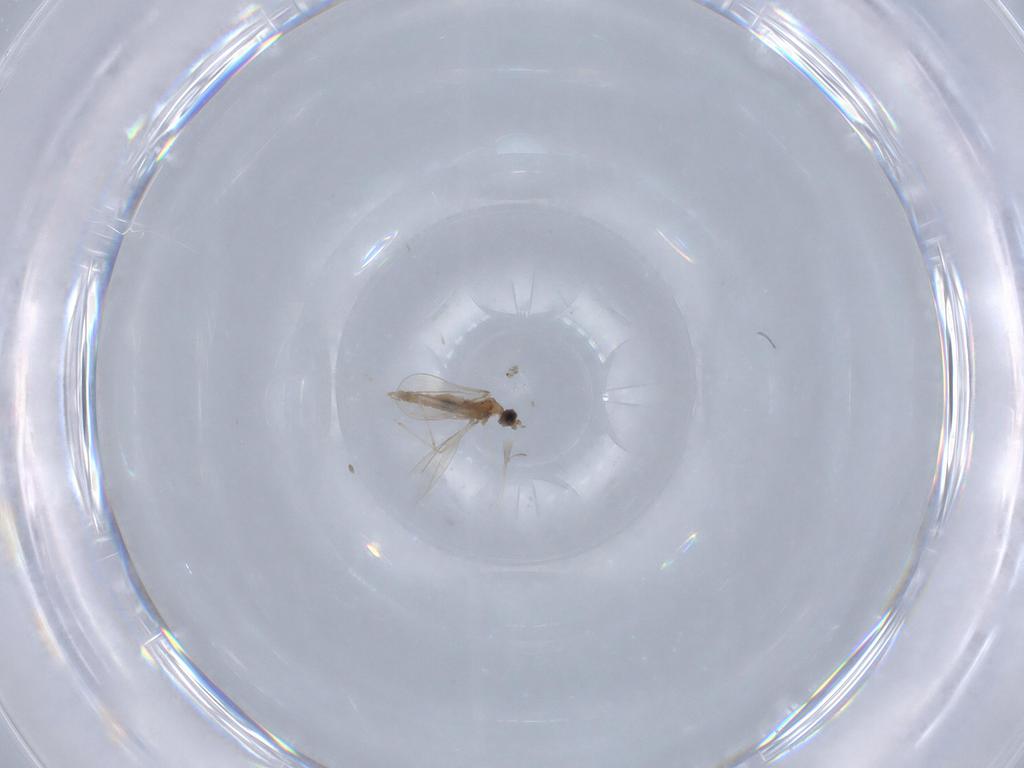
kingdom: Animalia
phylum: Arthropoda
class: Insecta
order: Diptera
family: Cecidomyiidae
